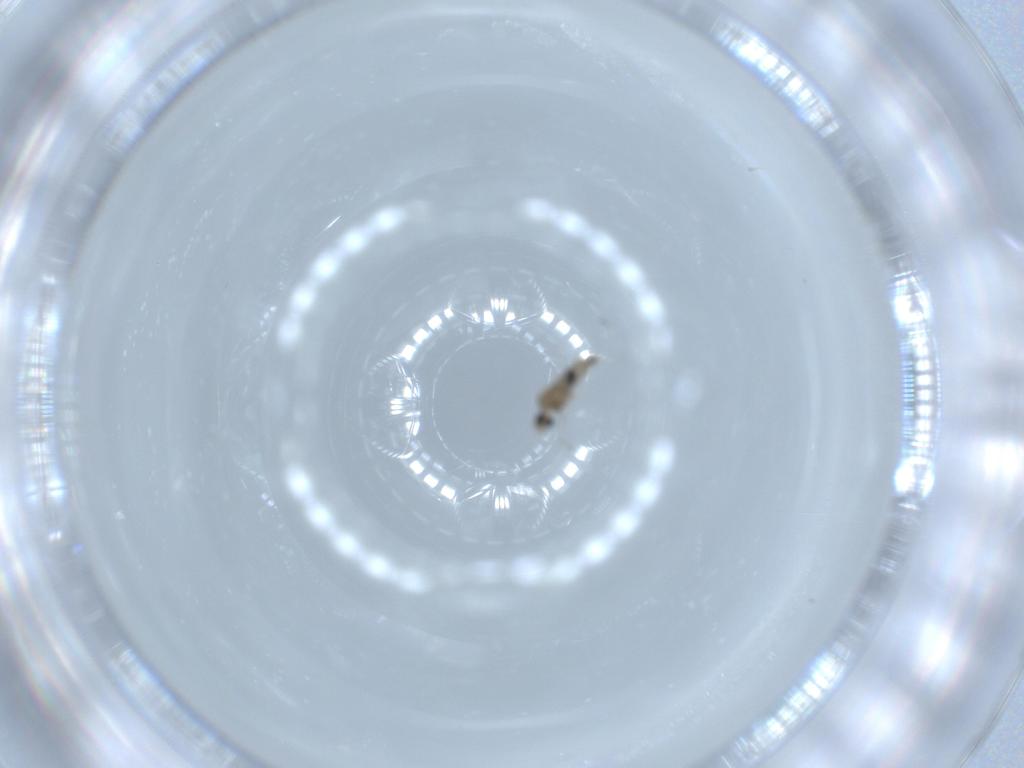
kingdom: Animalia
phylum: Arthropoda
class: Insecta
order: Diptera
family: Cecidomyiidae
